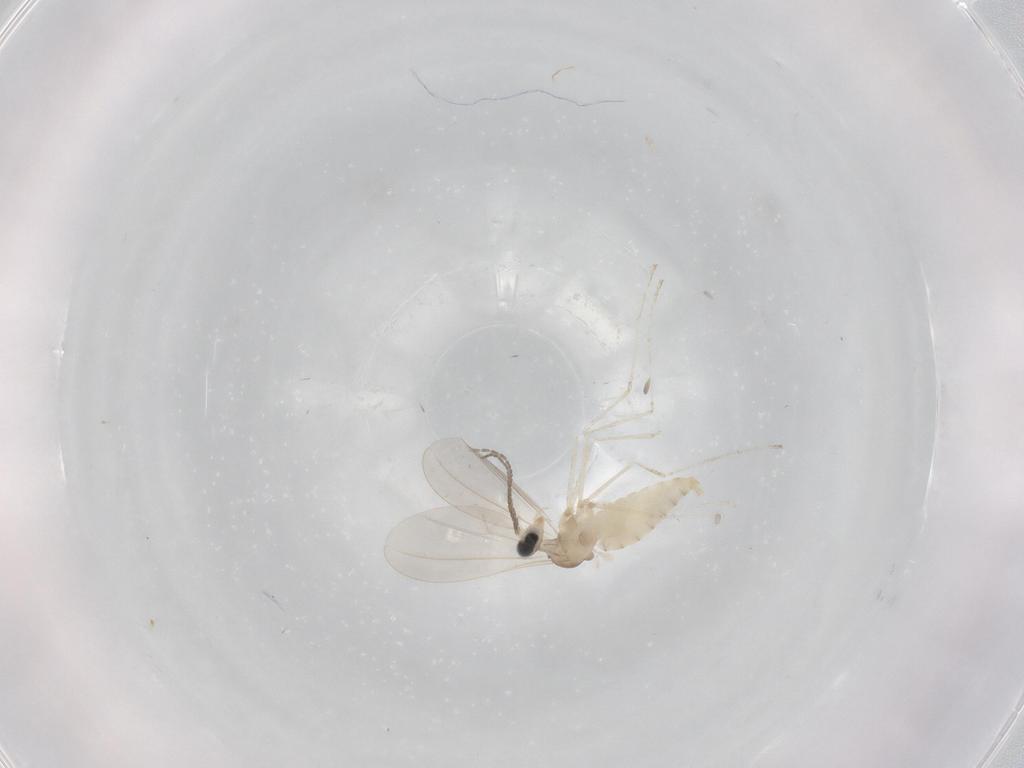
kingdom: Animalia
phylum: Arthropoda
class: Insecta
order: Diptera
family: Cecidomyiidae
